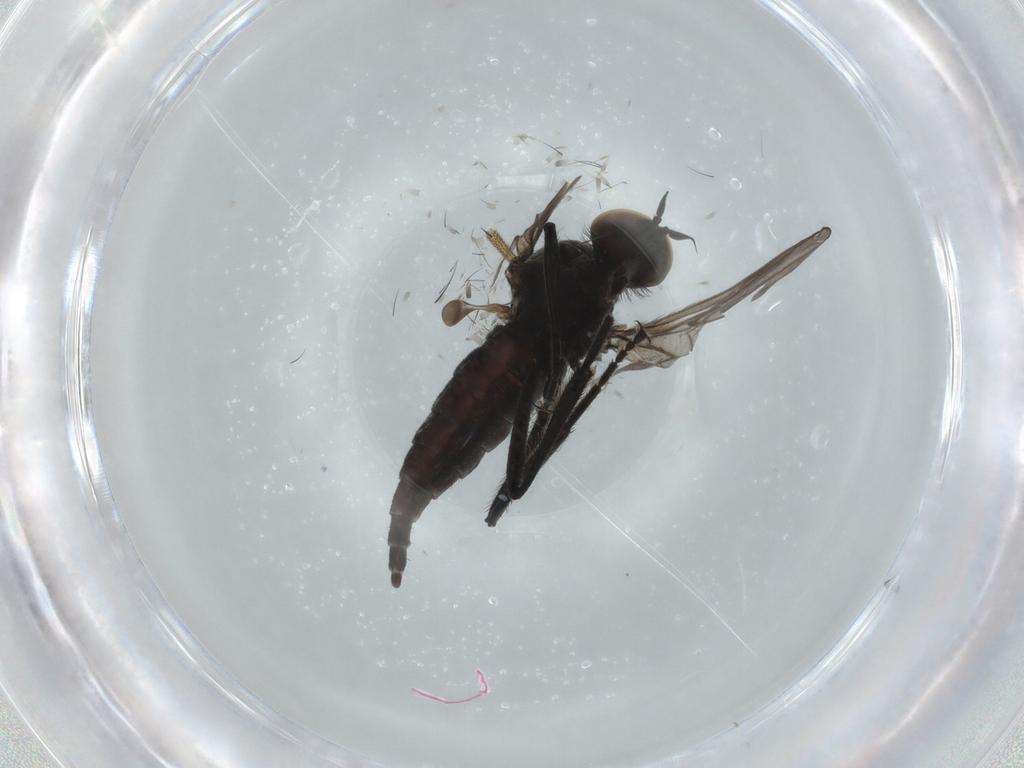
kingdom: Animalia
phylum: Arthropoda
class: Insecta
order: Diptera
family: Hybotidae
